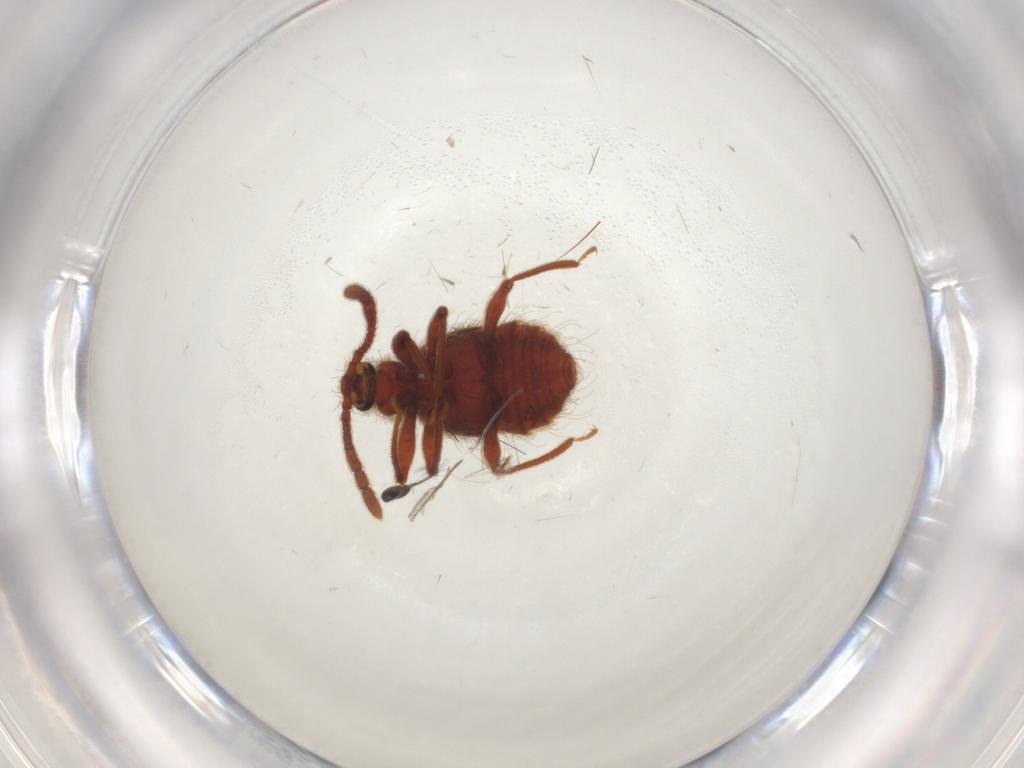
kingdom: Animalia
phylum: Arthropoda
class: Insecta
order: Coleoptera
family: Staphylinidae
